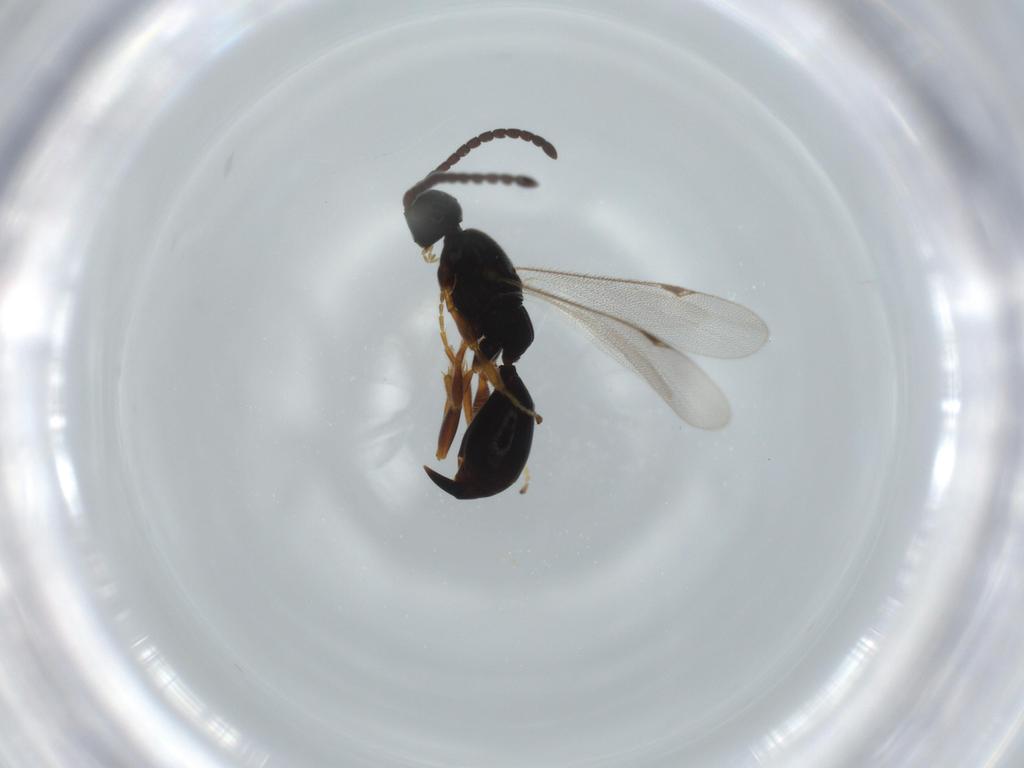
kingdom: Animalia
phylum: Arthropoda
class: Insecta
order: Hymenoptera
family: Proctotrupidae
